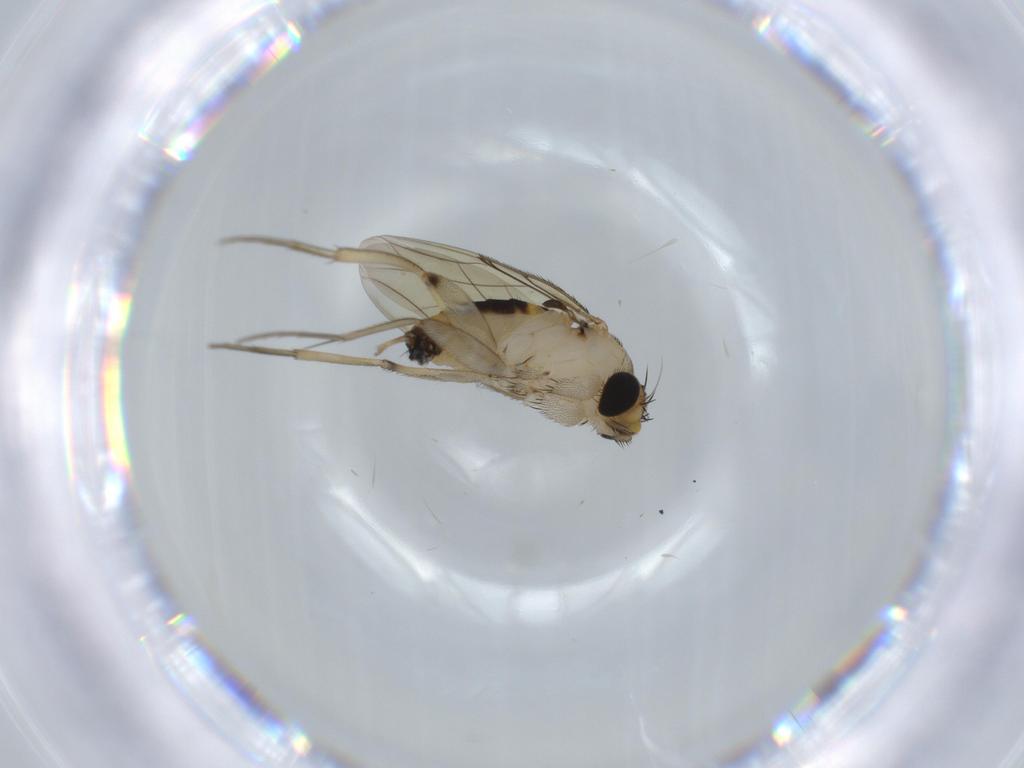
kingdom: Animalia
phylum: Arthropoda
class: Insecta
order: Diptera
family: Phoridae
